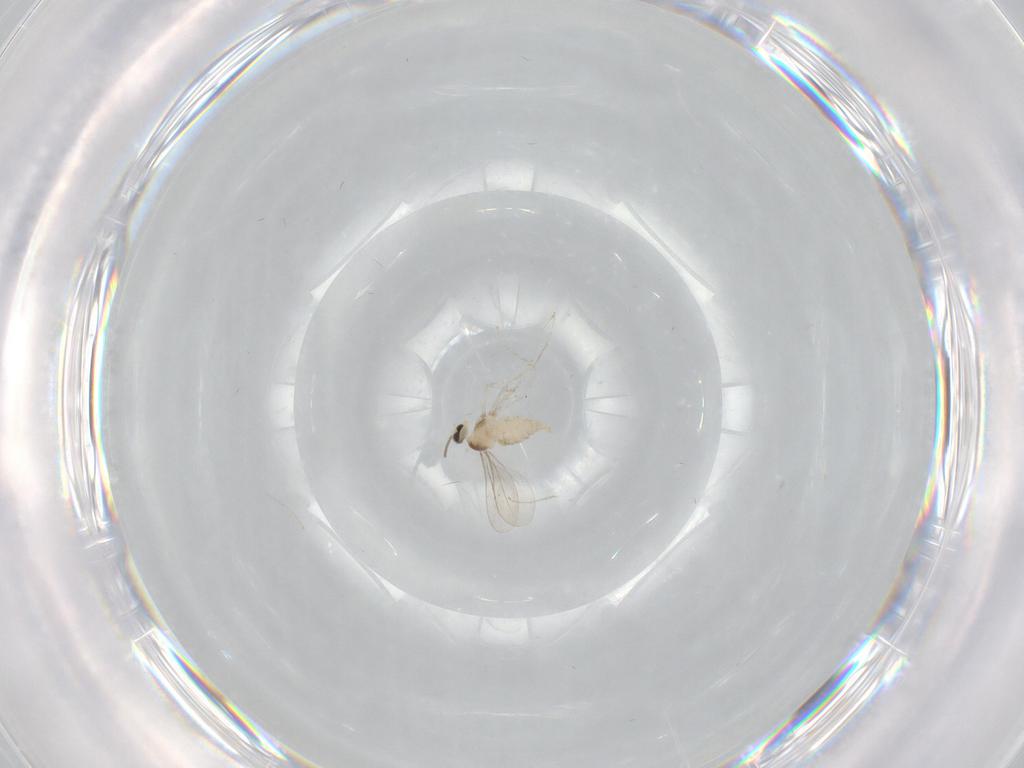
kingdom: Animalia
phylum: Arthropoda
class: Insecta
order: Diptera
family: Cecidomyiidae
